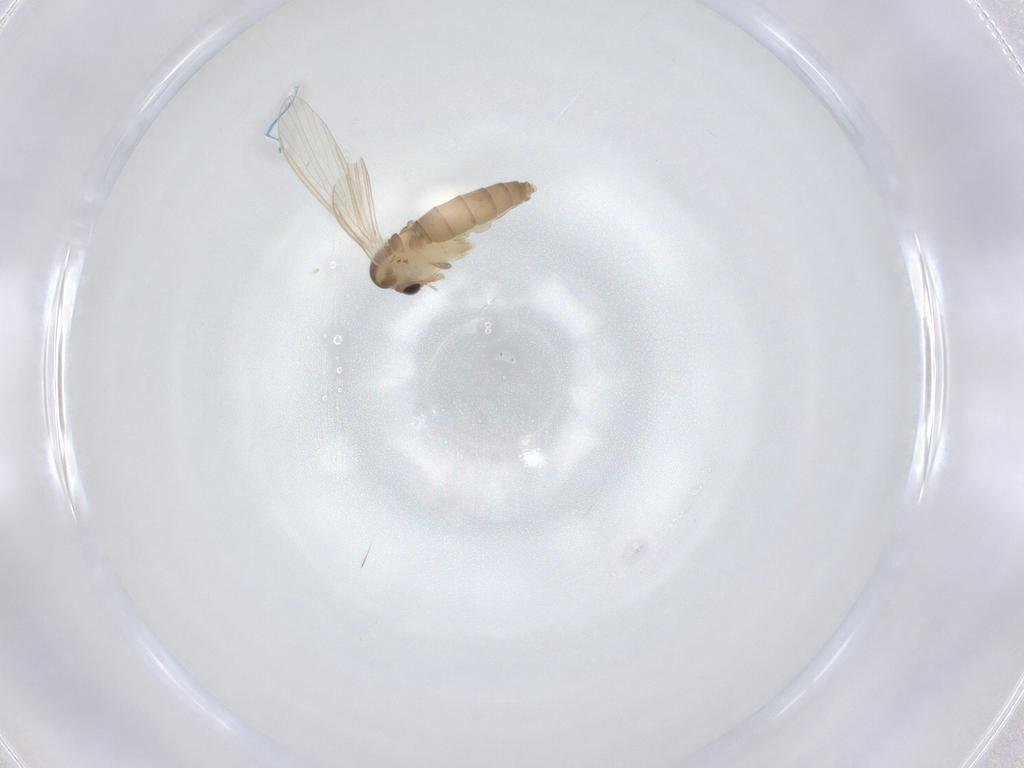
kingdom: Animalia
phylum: Arthropoda
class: Insecta
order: Diptera
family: Psychodidae
